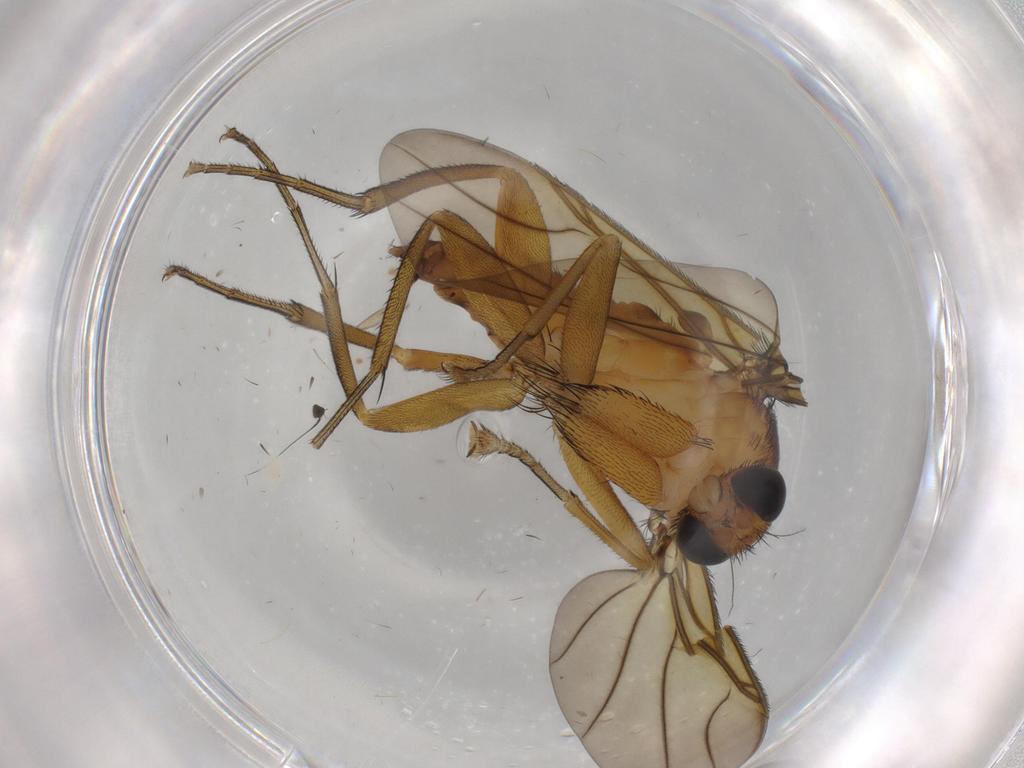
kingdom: Animalia
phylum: Arthropoda
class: Insecta
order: Diptera
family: Phoridae
